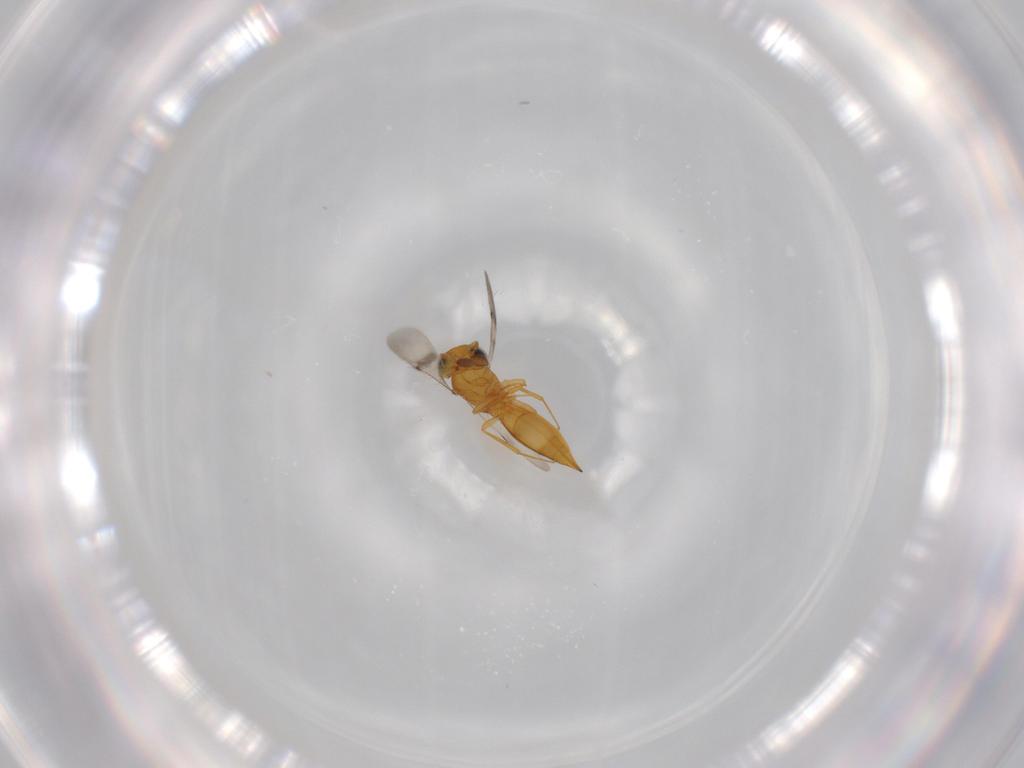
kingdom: Animalia
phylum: Arthropoda
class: Insecta
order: Hymenoptera
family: Scelionidae
